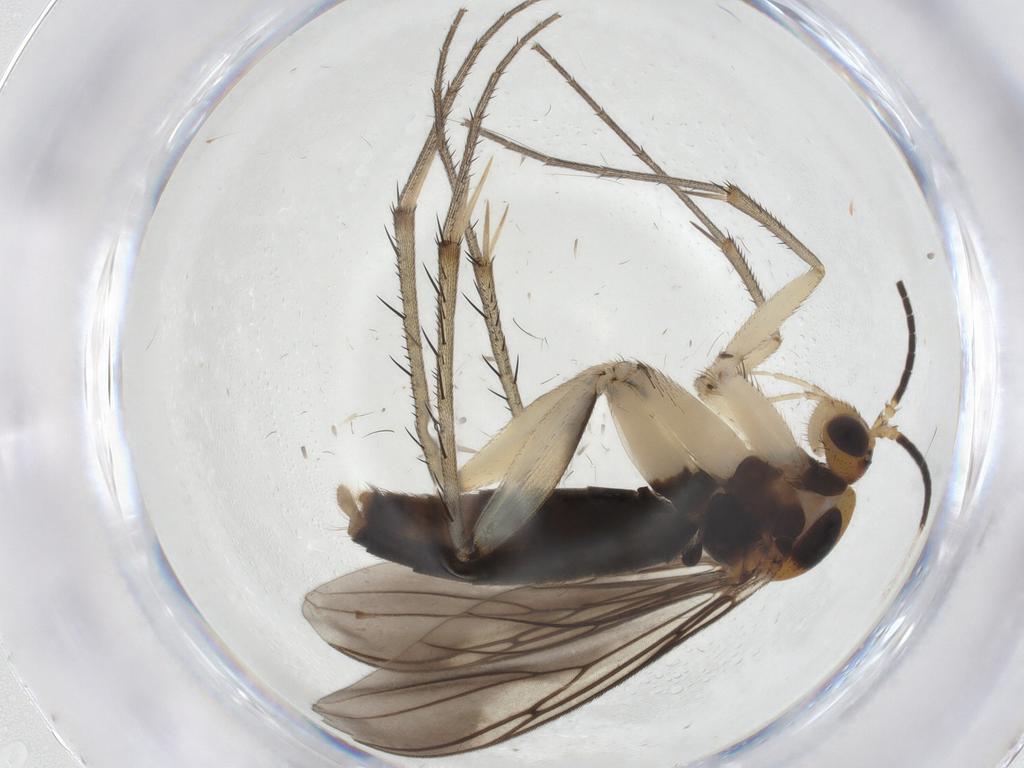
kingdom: Animalia
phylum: Arthropoda
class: Insecta
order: Diptera
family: Mycetophilidae
